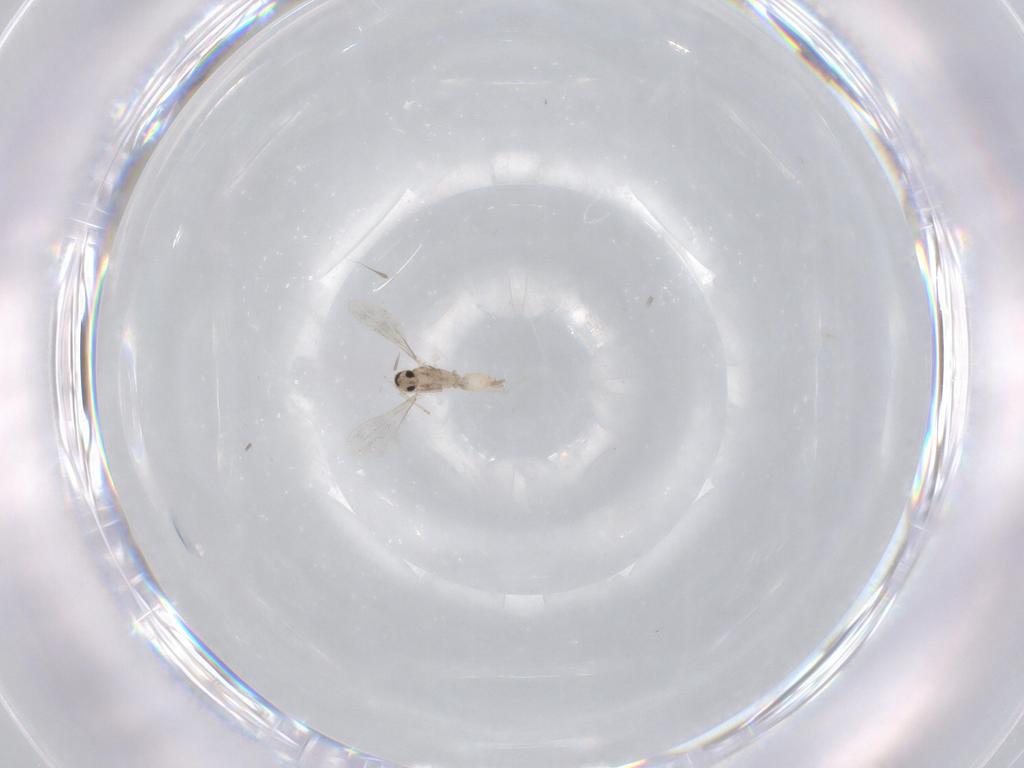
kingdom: Animalia
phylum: Arthropoda
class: Insecta
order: Diptera
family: Cecidomyiidae
